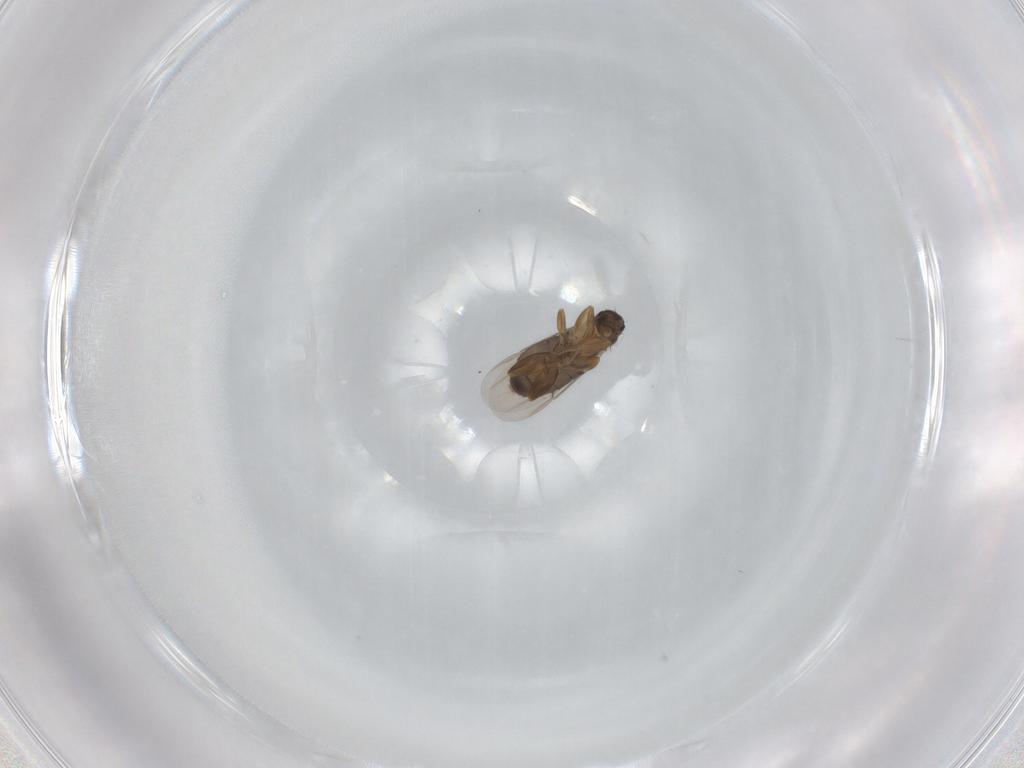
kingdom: Animalia
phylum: Arthropoda
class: Insecta
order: Diptera
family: Phoridae
